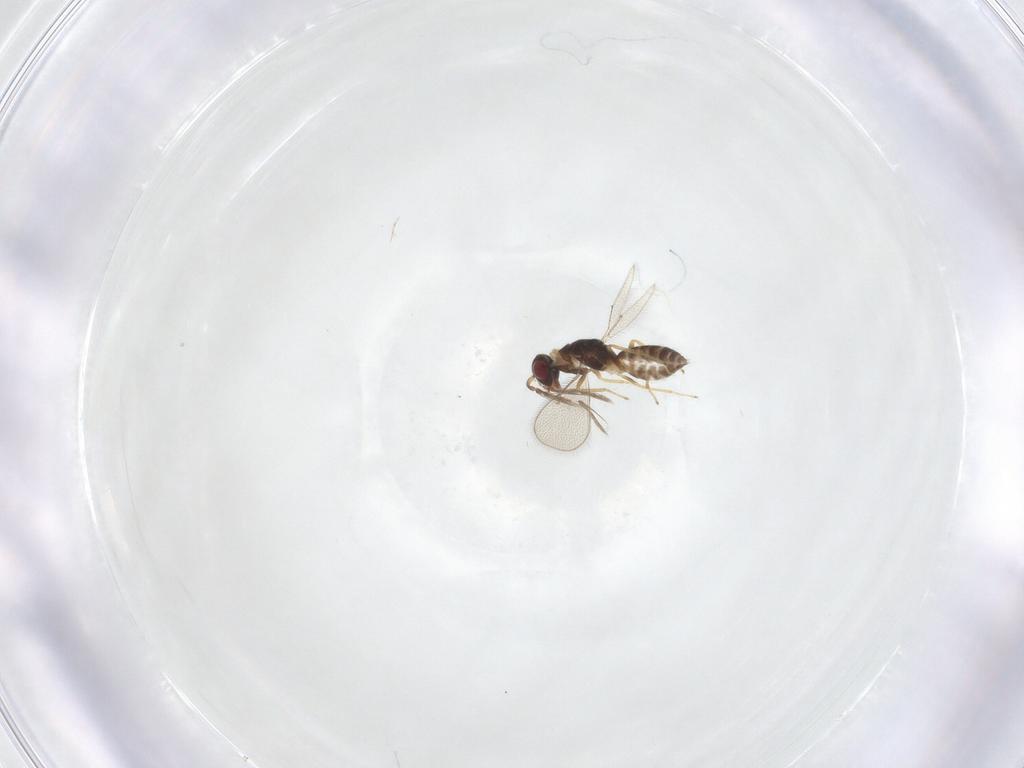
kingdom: Animalia
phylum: Arthropoda
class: Insecta
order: Hymenoptera
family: Eulophidae
